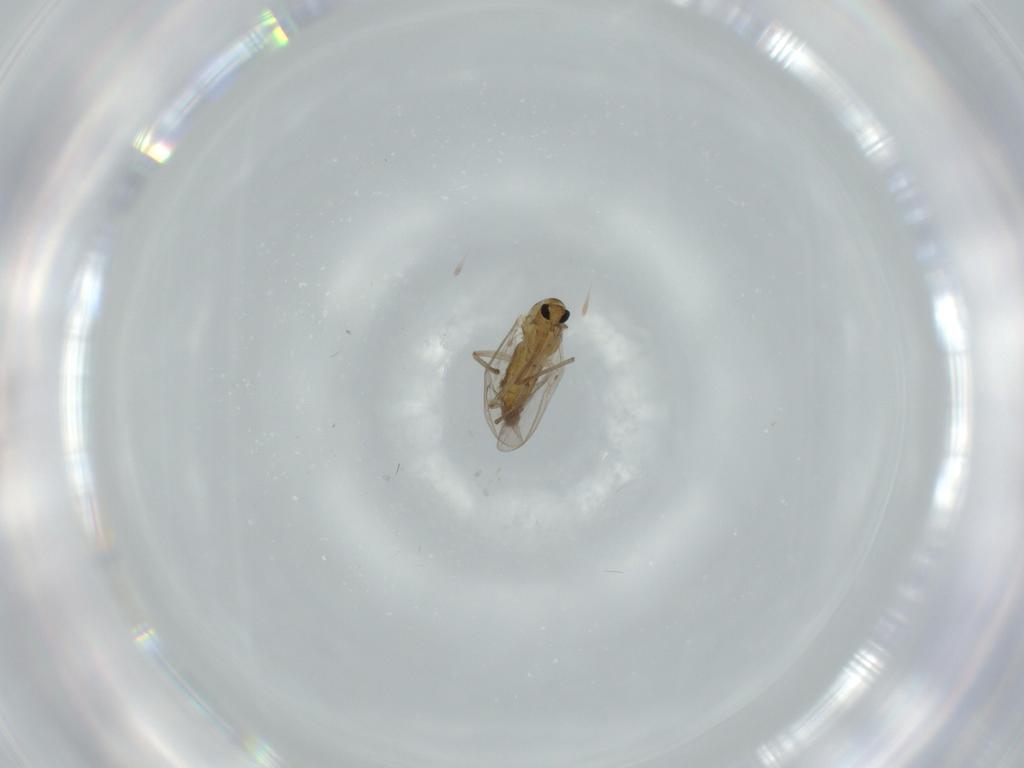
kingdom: Animalia
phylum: Arthropoda
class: Insecta
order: Diptera
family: Chironomidae
